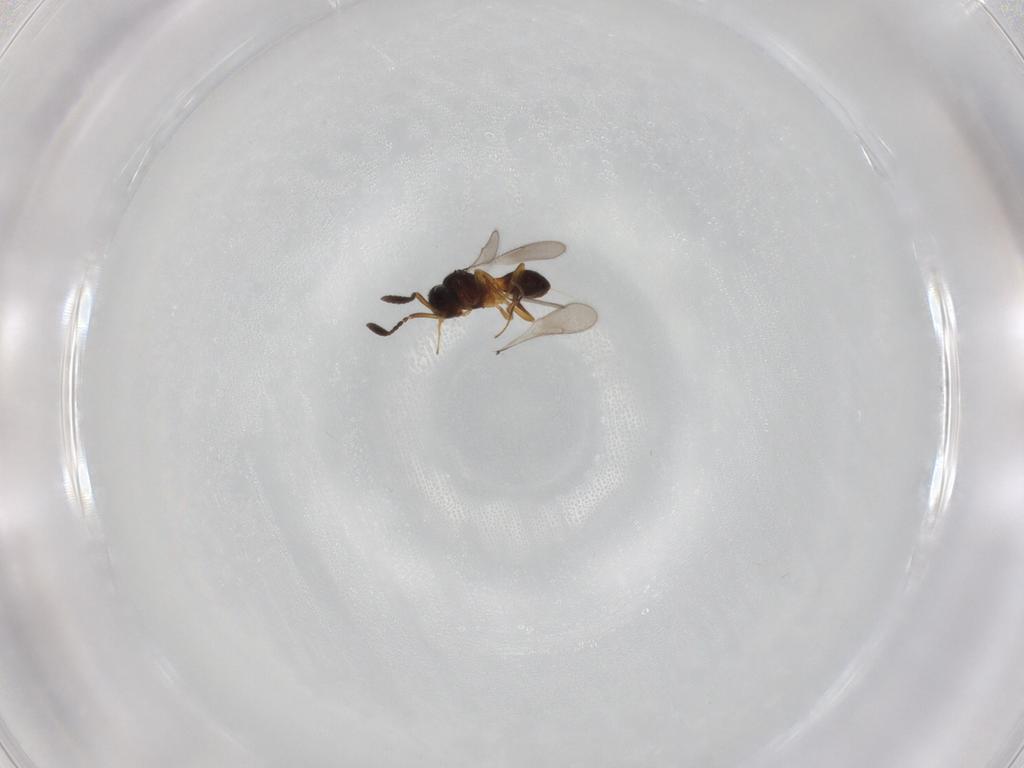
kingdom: Animalia
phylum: Arthropoda
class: Insecta
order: Hymenoptera
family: Scelionidae
